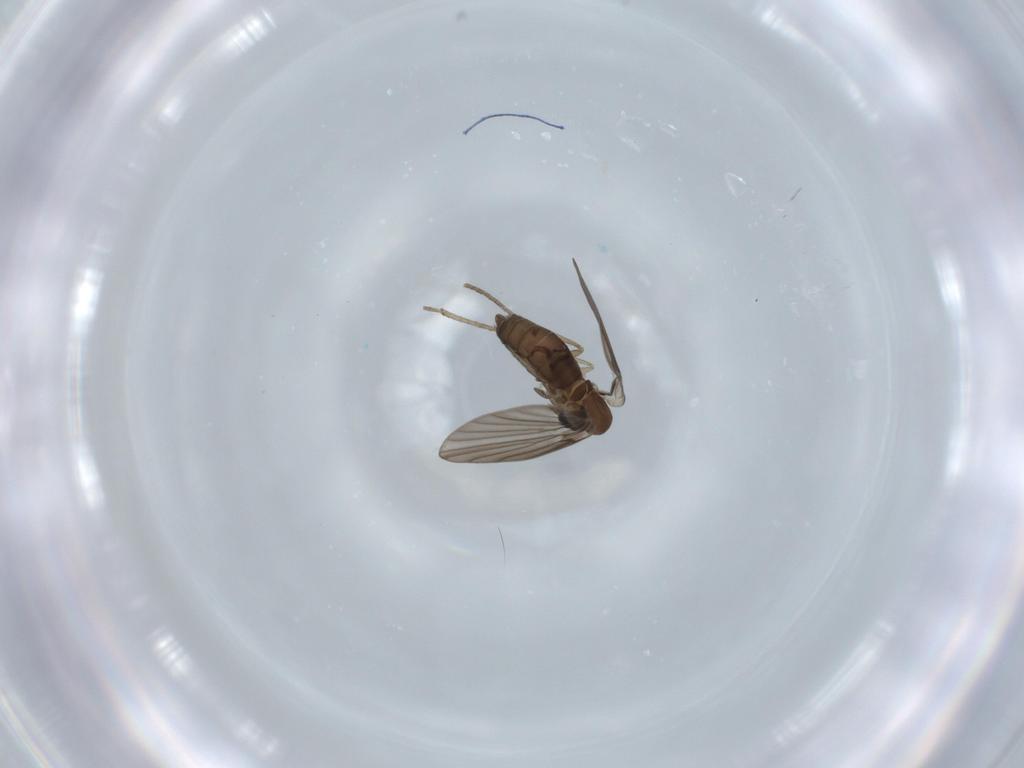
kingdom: Animalia
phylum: Arthropoda
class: Insecta
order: Diptera
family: Psychodidae
